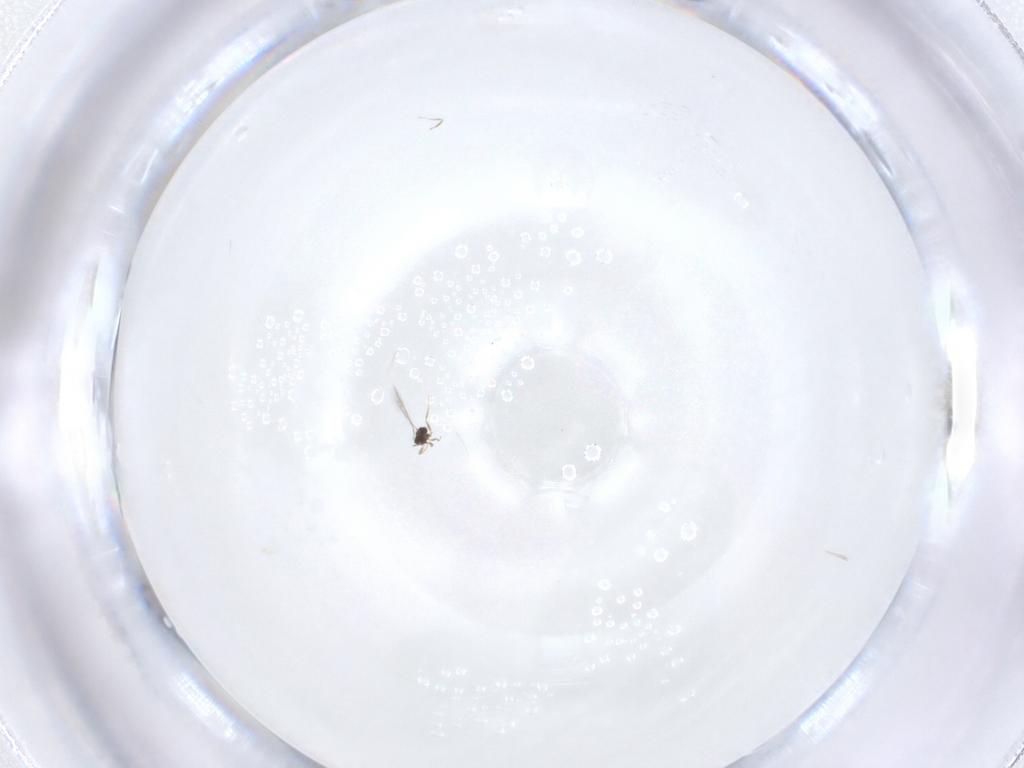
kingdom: Animalia
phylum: Arthropoda
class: Insecta
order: Hymenoptera
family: Mymaridae
